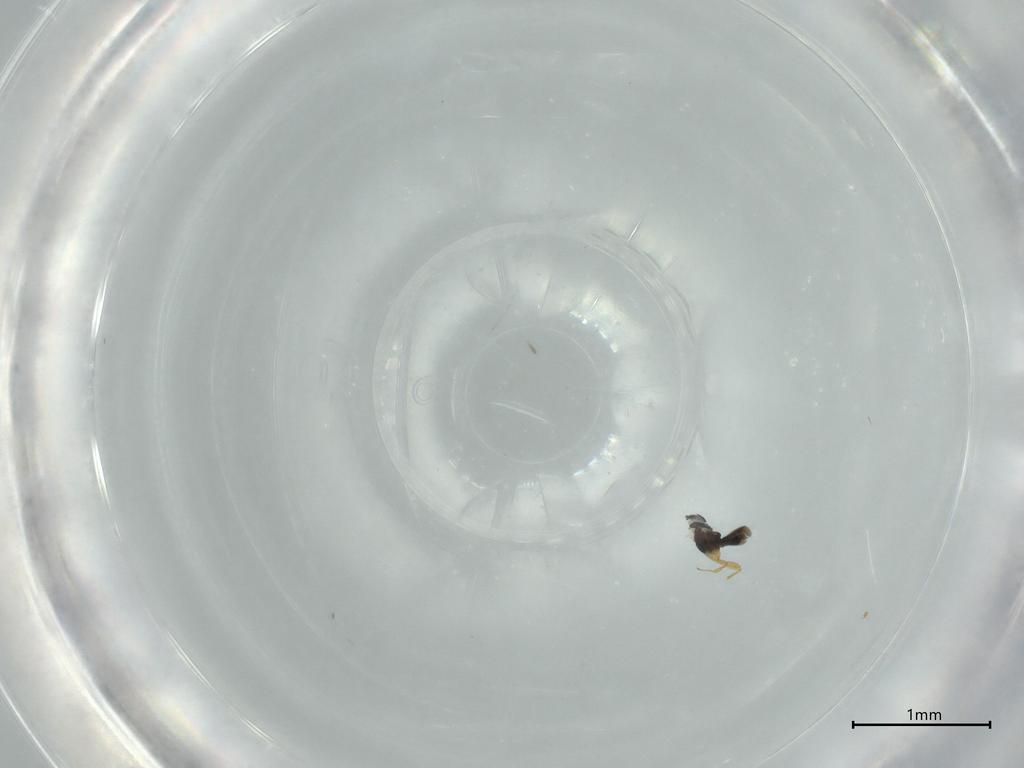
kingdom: Animalia
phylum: Arthropoda
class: Insecta
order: Hymenoptera
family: Scelionidae
